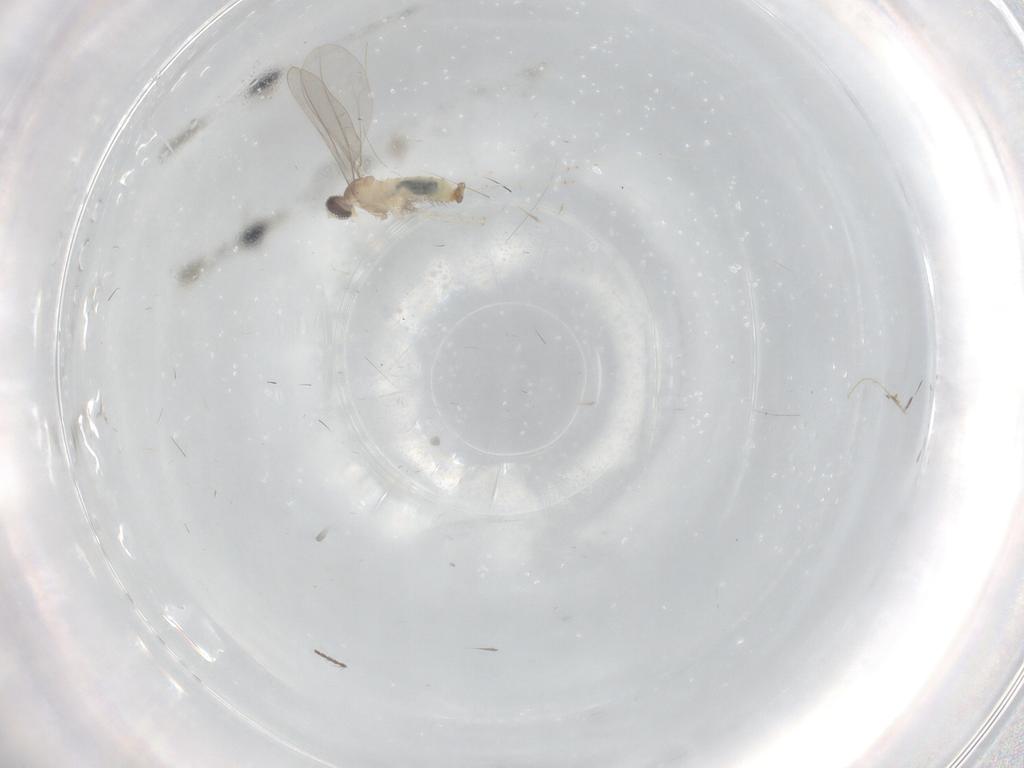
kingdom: Animalia
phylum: Arthropoda
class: Insecta
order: Diptera
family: Cecidomyiidae
